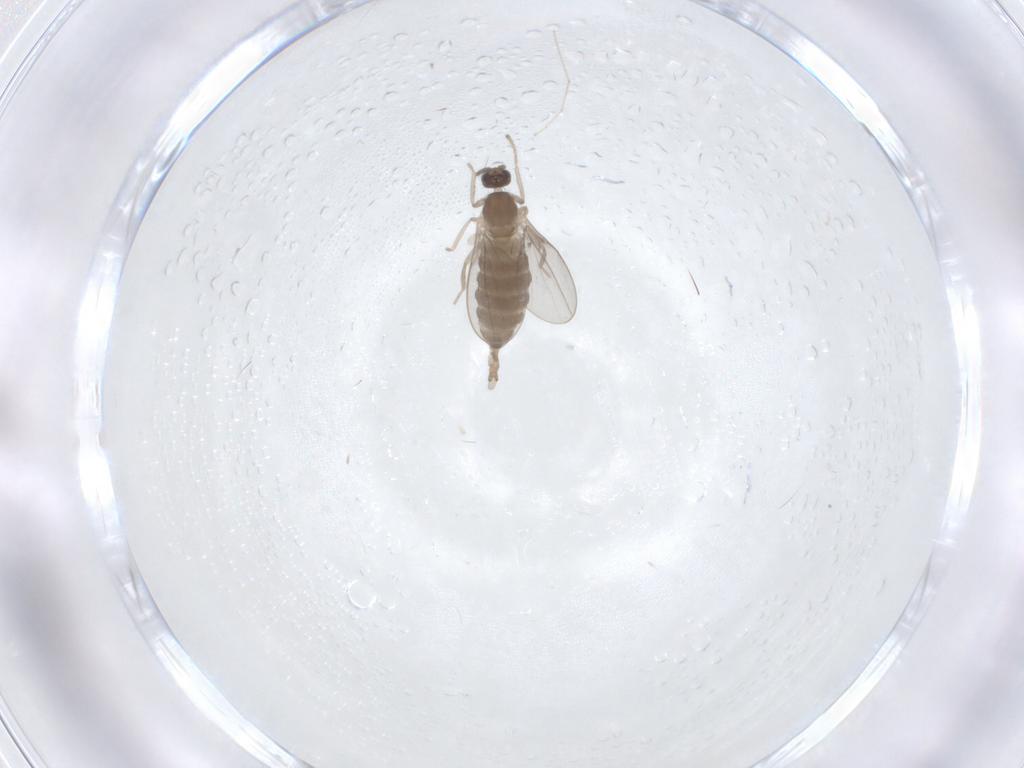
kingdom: Animalia
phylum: Arthropoda
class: Insecta
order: Diptera
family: Cecidomyiidae
